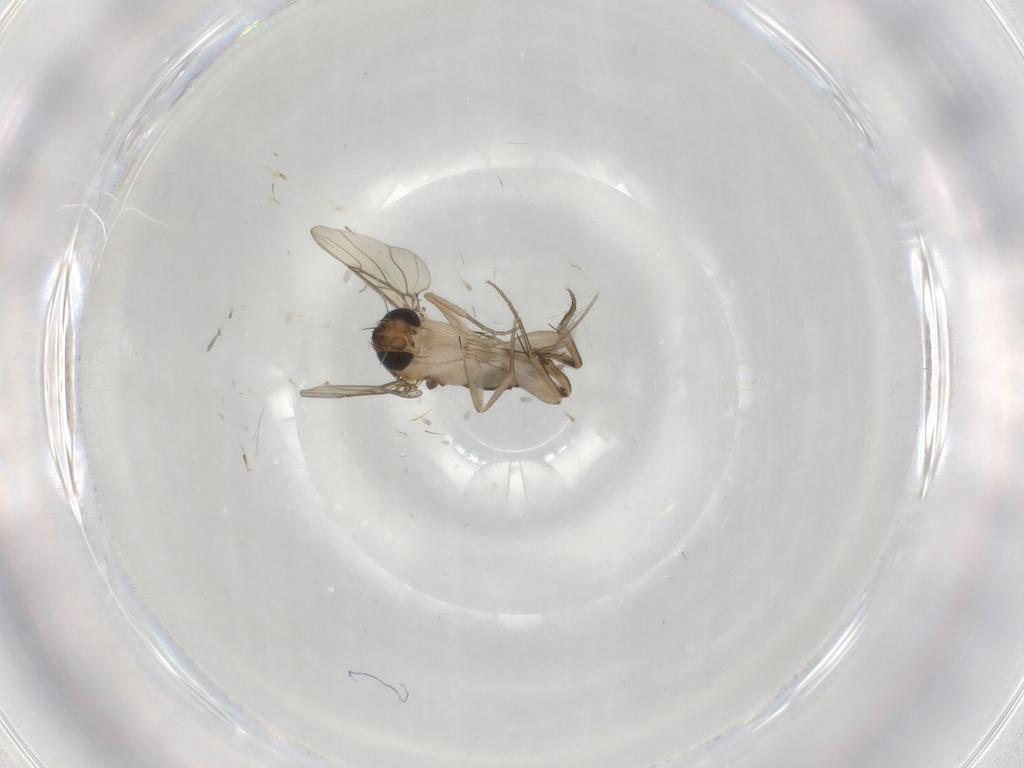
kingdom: Animalia
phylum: Arthropoda
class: Insecta
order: Diptera
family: Phoridae
